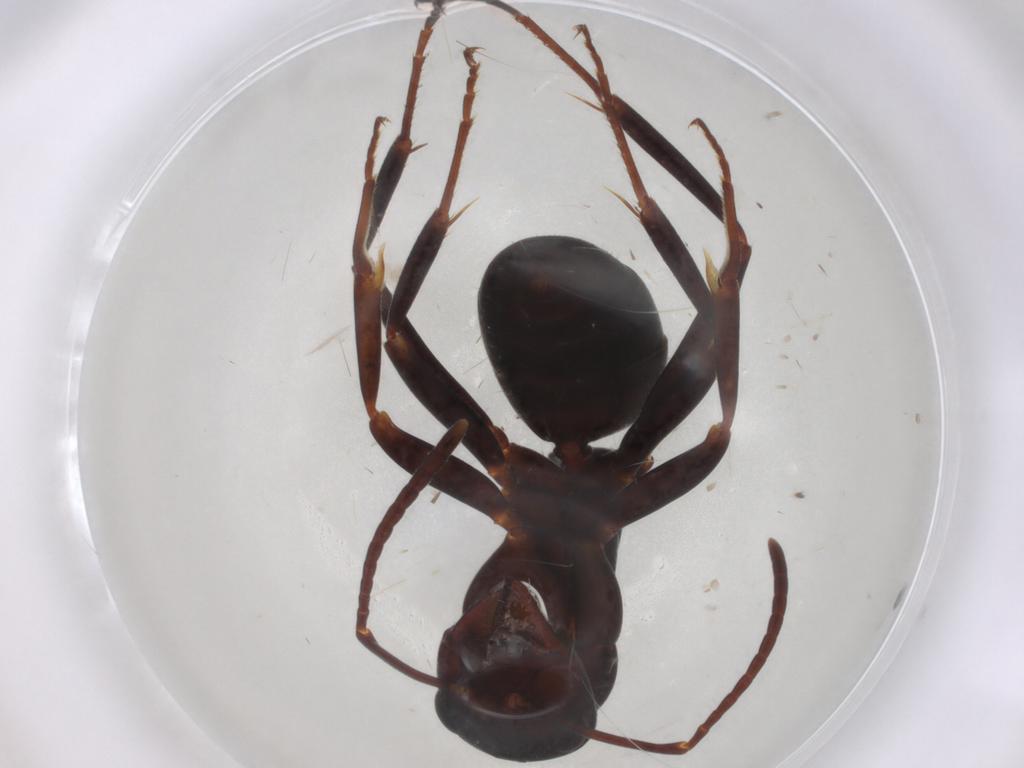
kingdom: Animalia
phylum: Arthropoda
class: Insecta
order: Hymenoptera
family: Formicidae
